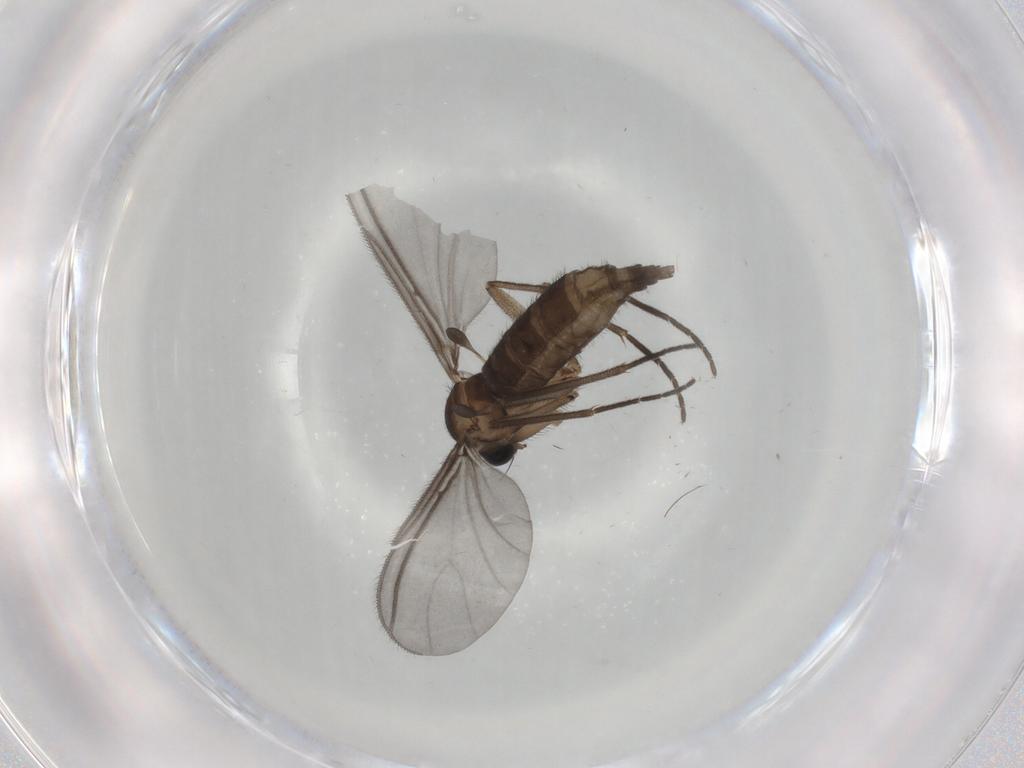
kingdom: Animalia
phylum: Arthropoda
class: Insecta
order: Diptera
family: Sciaridae
